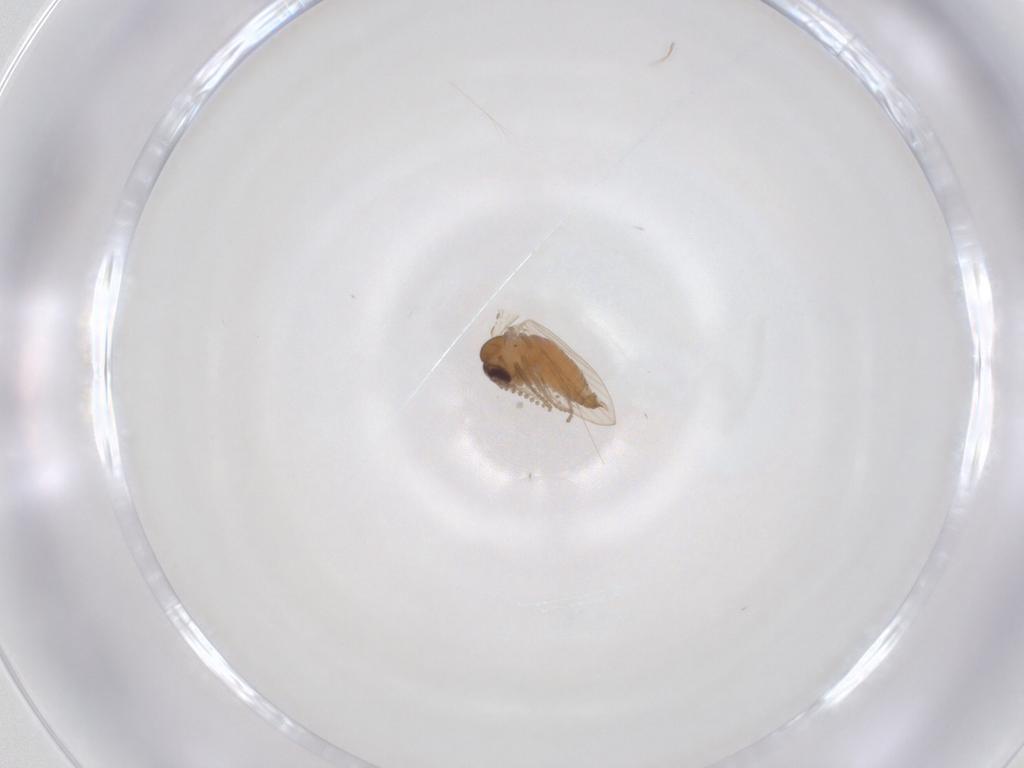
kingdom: Animalia
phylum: Arthropoda
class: Insecta
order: Diptera
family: Psychodidae
